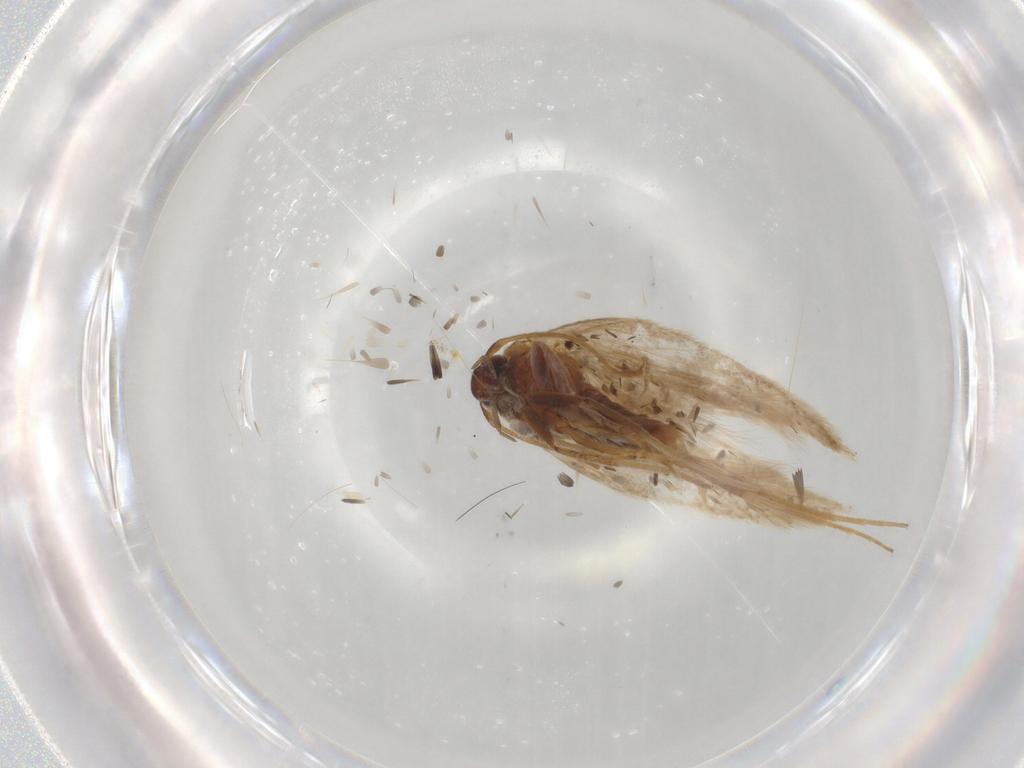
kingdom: Animalia
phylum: Arthropoda
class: Insecta
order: Lepidoptera
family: Gelechiidae
